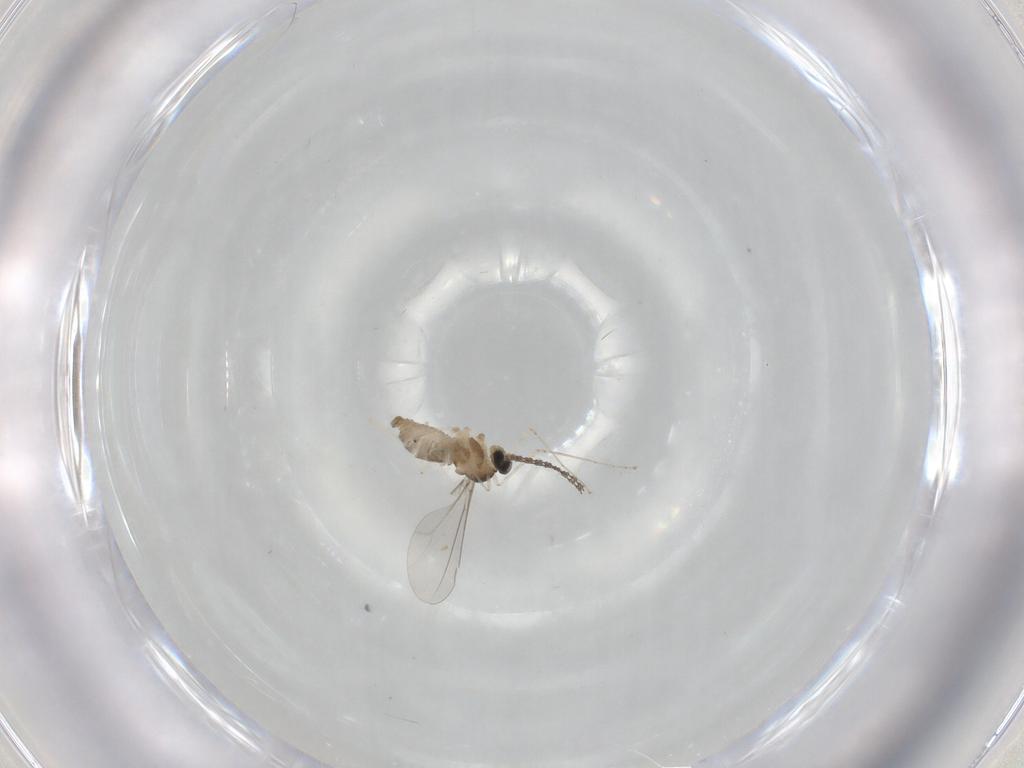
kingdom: Animalia
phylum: Arthropoda
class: Insecta
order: Diptera
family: Cecidomyiidae
